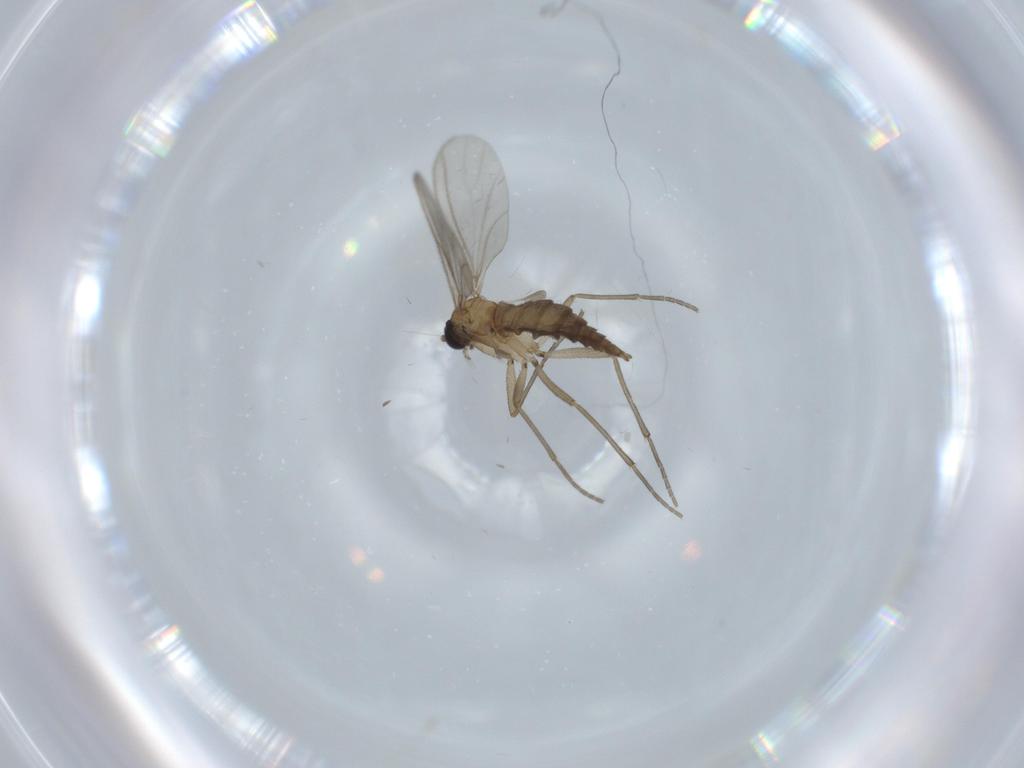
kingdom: Animalia
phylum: Arthropoda
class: Insecta
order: Diptera
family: Sciaridae
